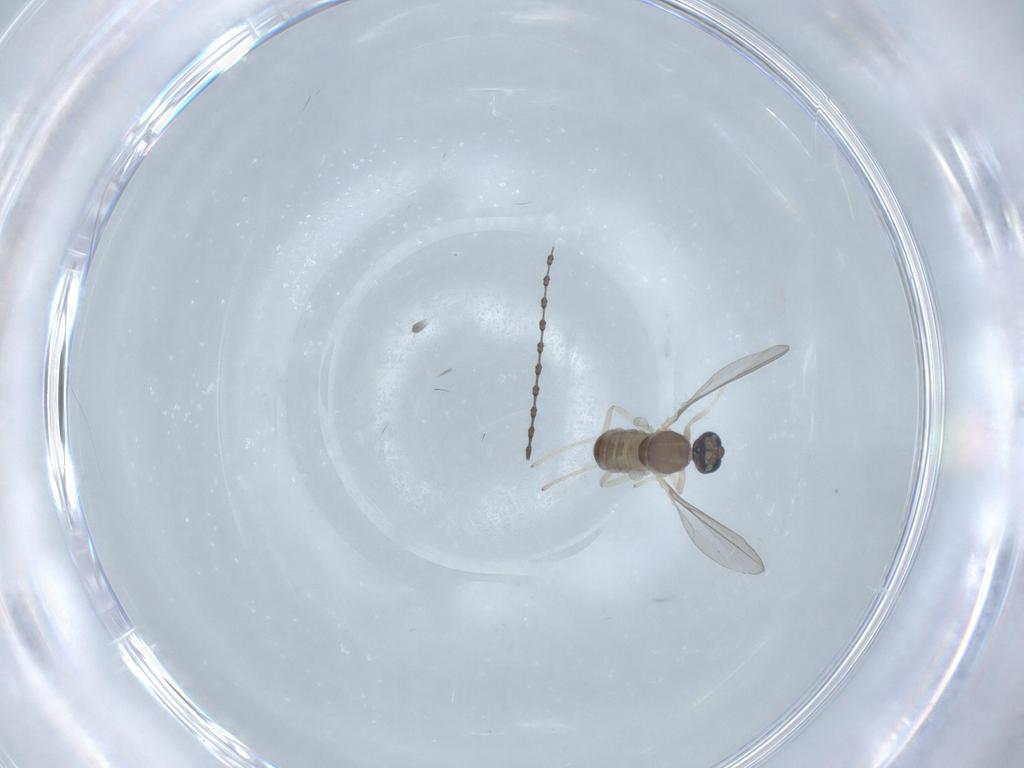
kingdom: Animalia
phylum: Arthropoda
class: Insecta
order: Diptera
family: Cecidomyiidae
